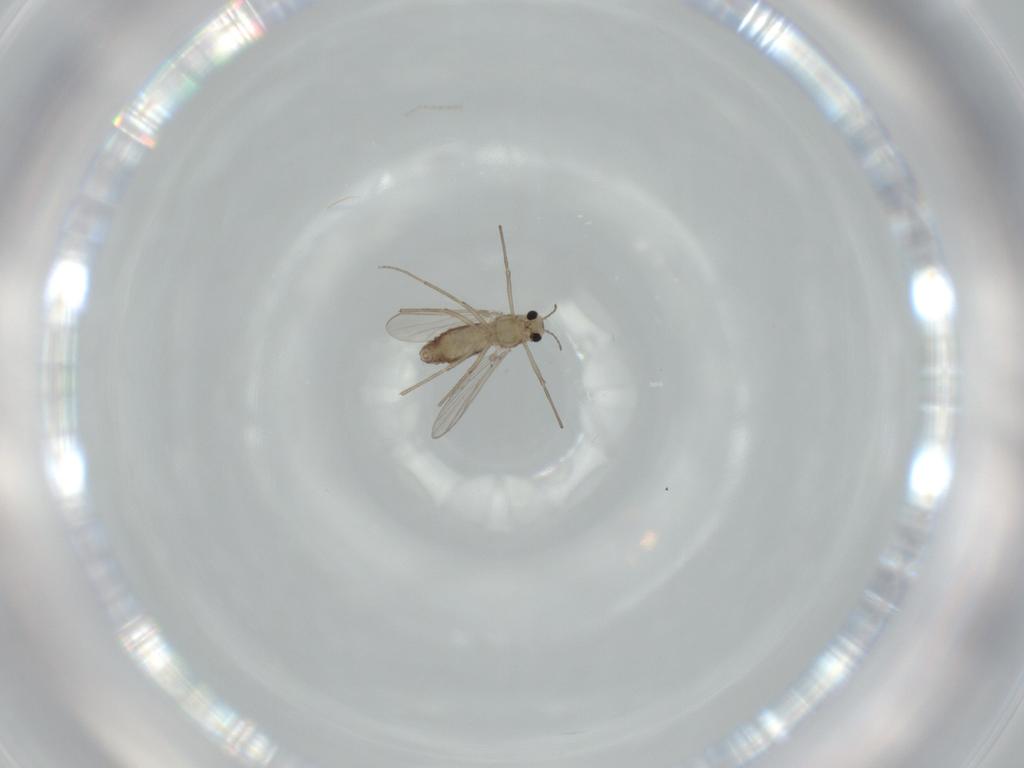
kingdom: Animalia
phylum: Arthropoda
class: Insecta
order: Diptera
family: Chironomidae
